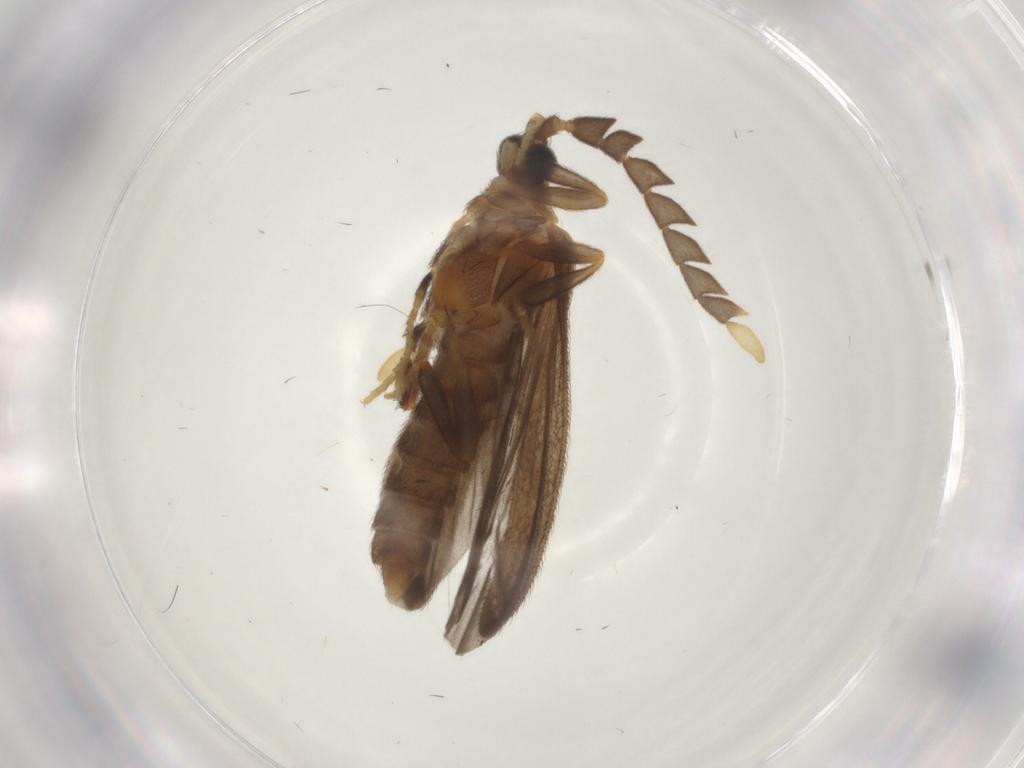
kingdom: Animalia
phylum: Arthropoda
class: Insecta
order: Coleoptera
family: Lycidae
